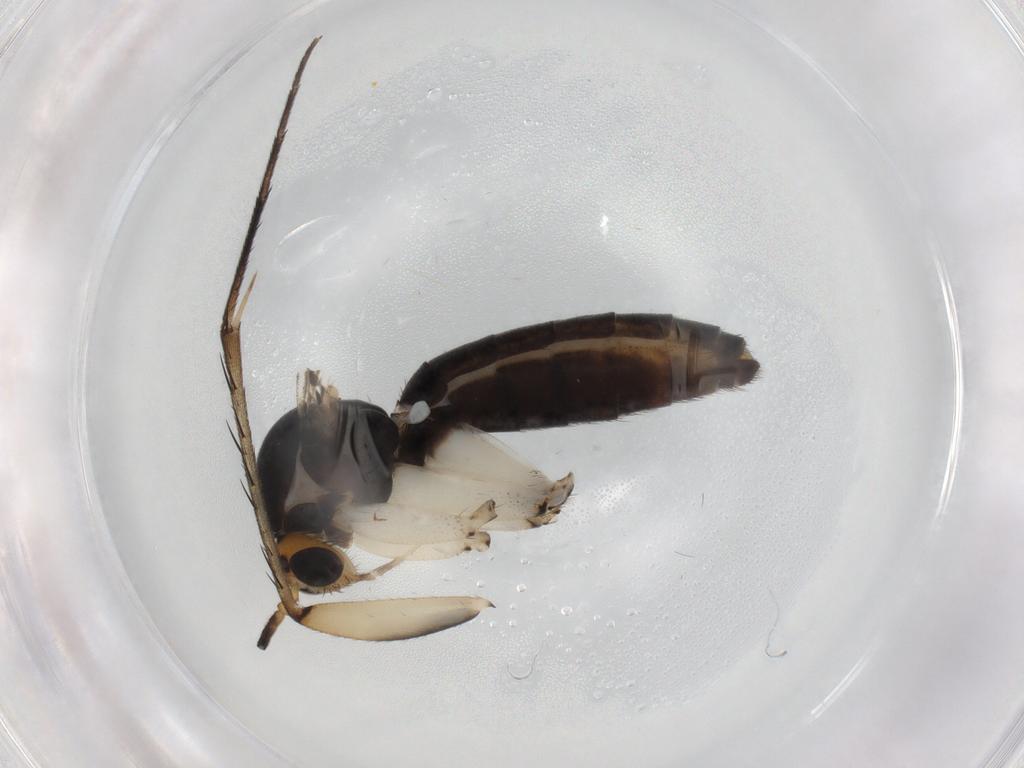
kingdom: Animalia
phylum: Arthropoda
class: Insecta
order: Diptera
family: Mycetophilidae
